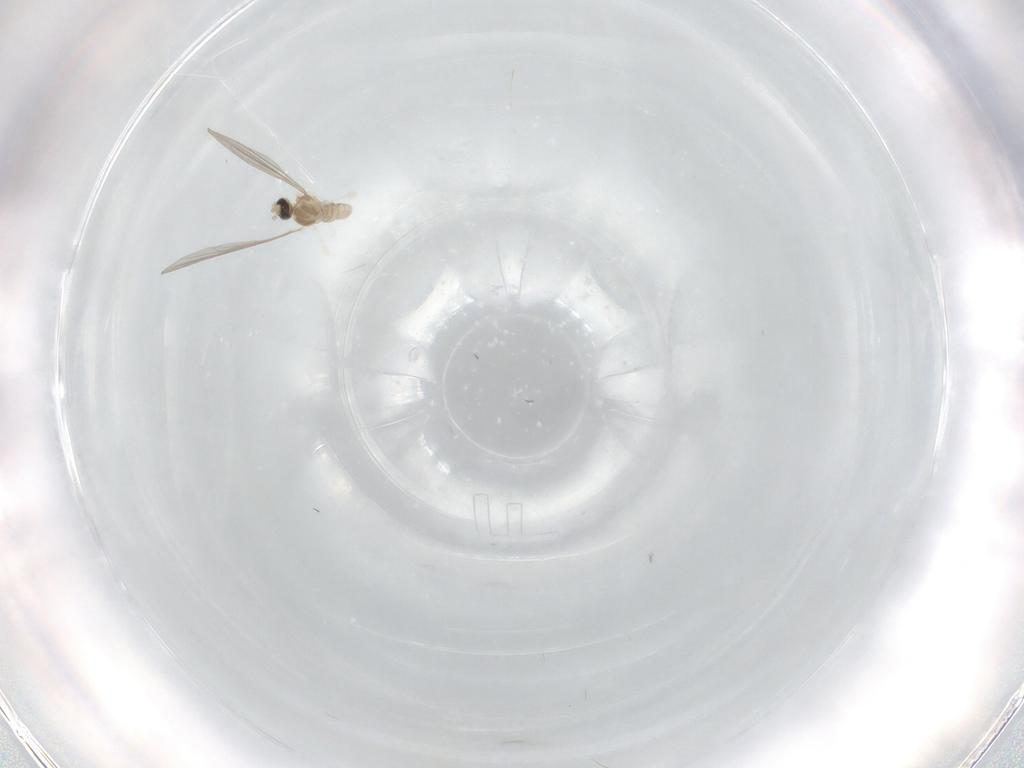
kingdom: Animalia
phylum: Arthropoda
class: Insecta
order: Diptera
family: Cecidomyiidae
